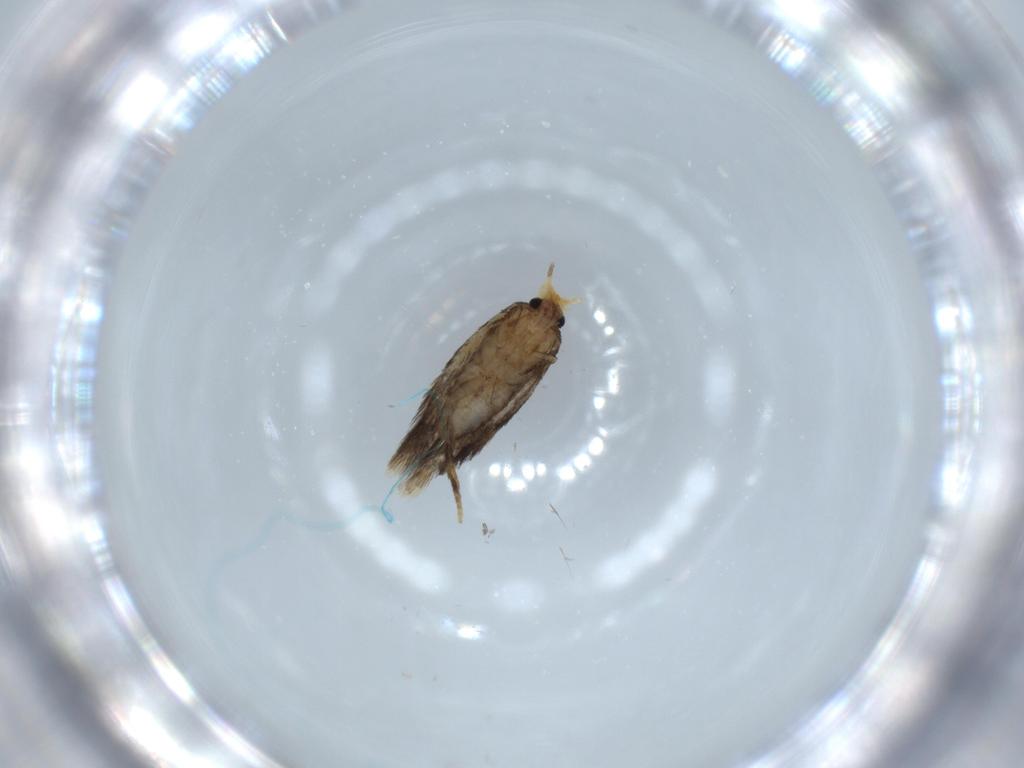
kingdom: Animalia
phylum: Arthropoda
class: Insecta
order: Lepidoptera
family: Nepticulidae
